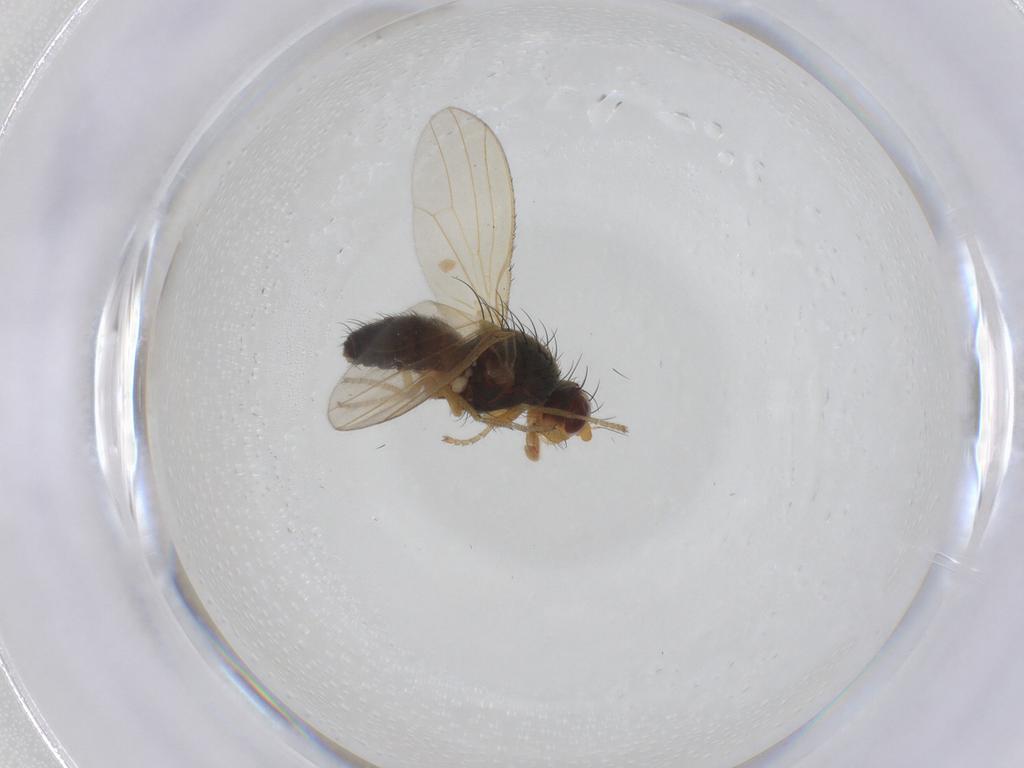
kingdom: Animalia
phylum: Arthropoda
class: Insecta
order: Diptera
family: Heleomyzidae
